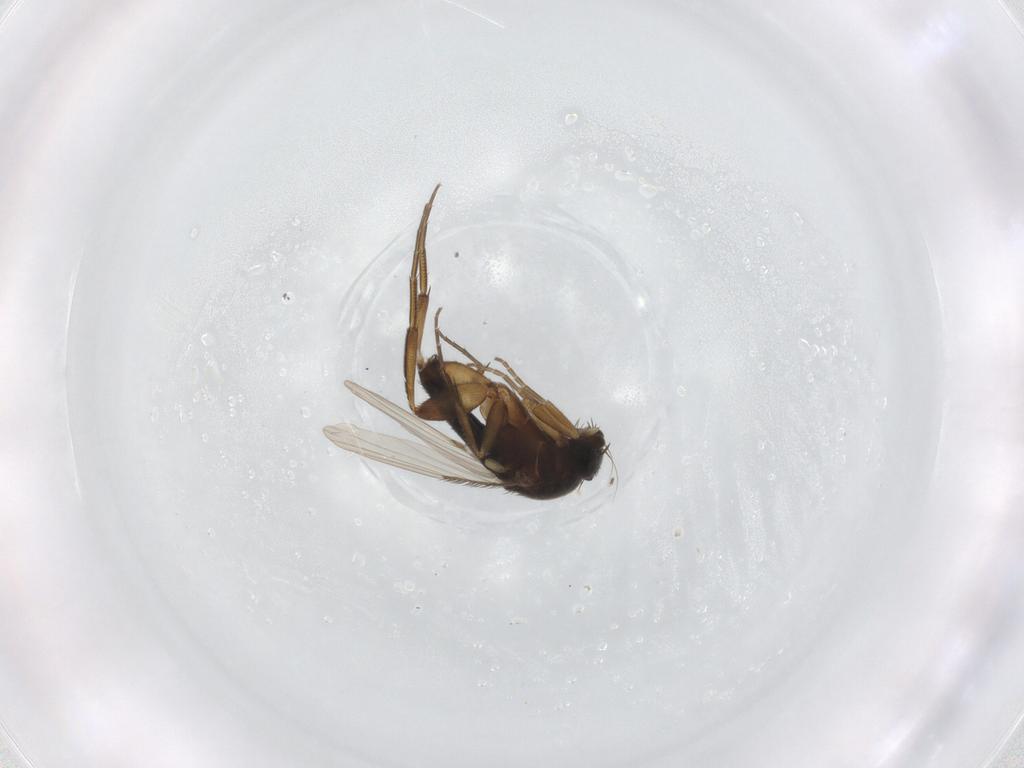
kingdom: Animalia
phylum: Arthropoda
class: Insecta
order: Diptera
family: Phoridae
